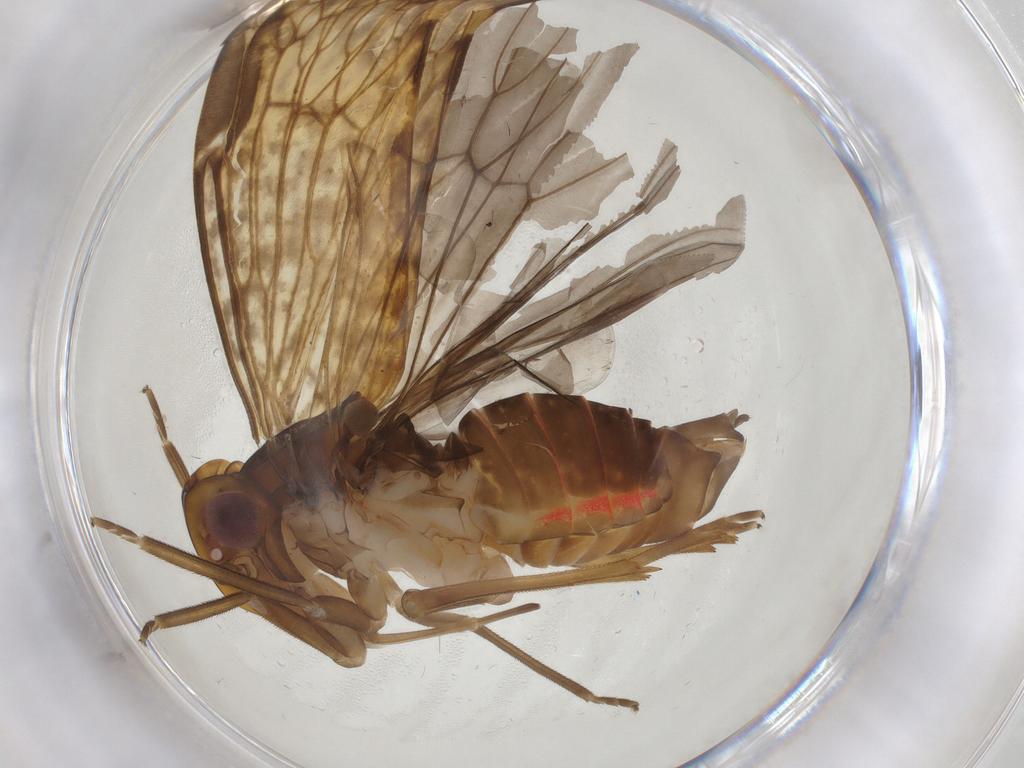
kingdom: Animalia
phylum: Arthropoda
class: Insecta
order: Hemiptera
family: Cixiidae
